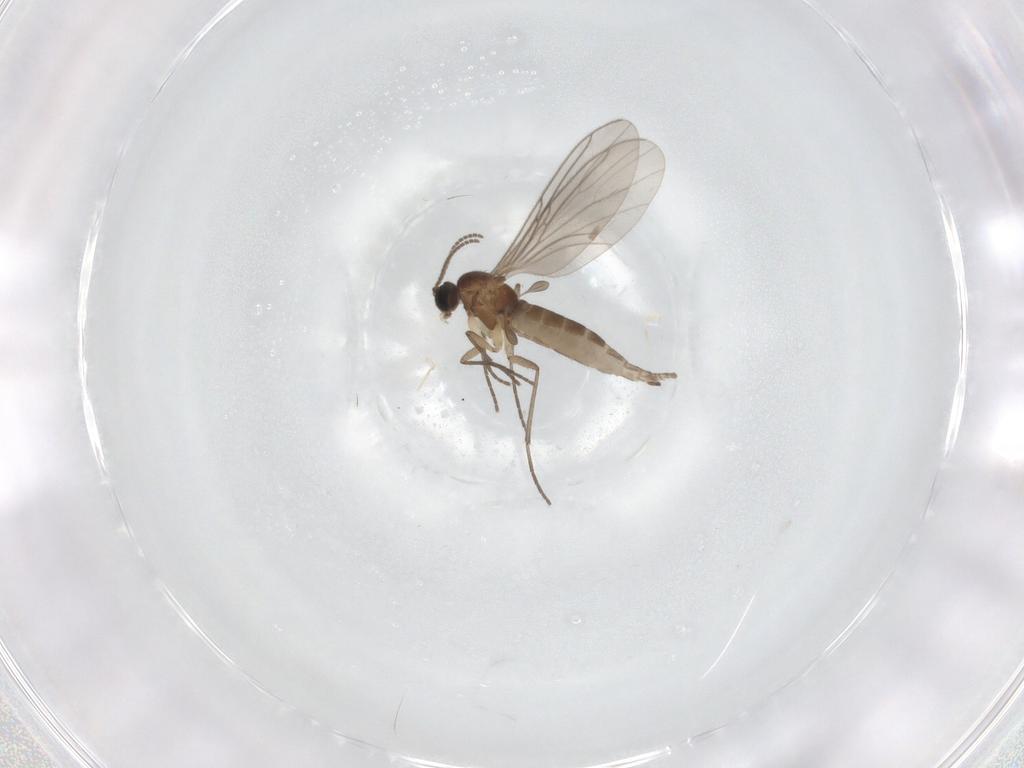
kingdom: Animalia
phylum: Arthropoda
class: Insecta
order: Diptera
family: Sciaridae
